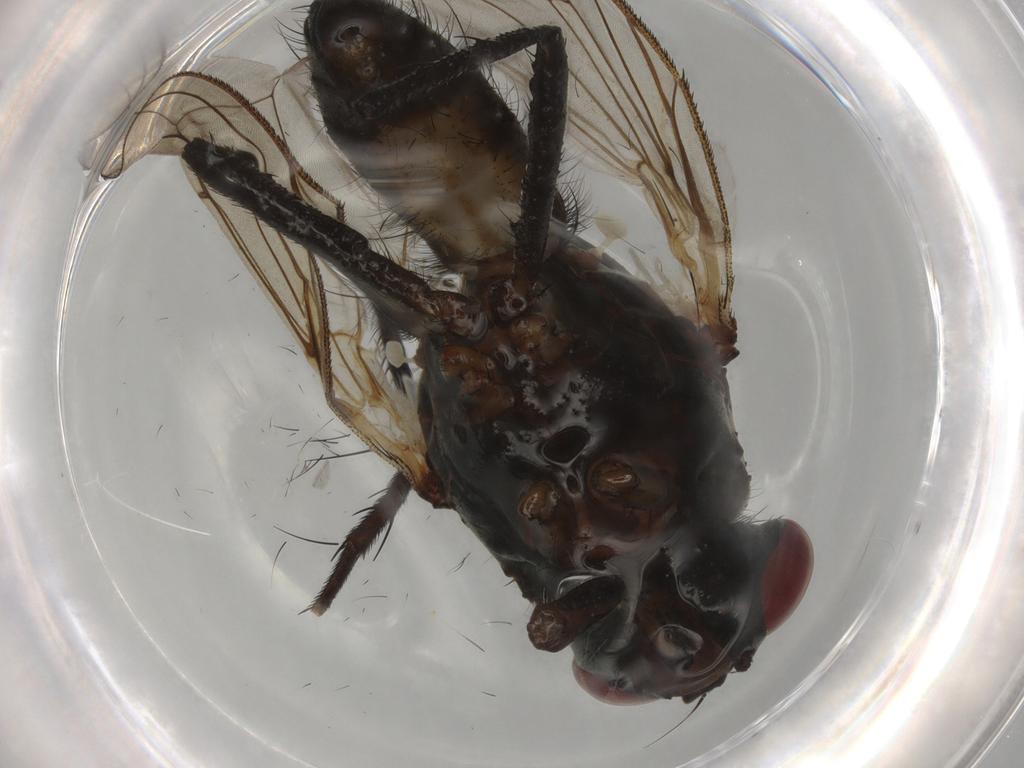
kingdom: Animalia
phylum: Arthropoda
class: Insecta
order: Diptera
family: Anthomyiidae
